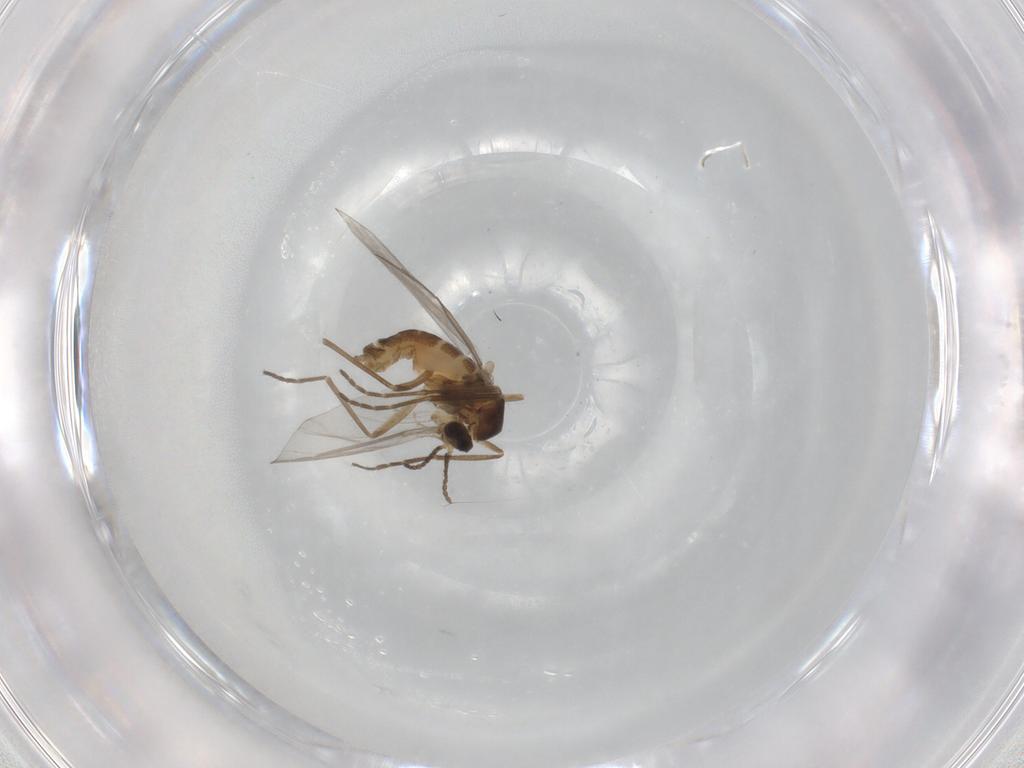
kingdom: Animalia
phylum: Arthropoda
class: Insecta
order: Diptera
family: Cecidomyiidae
